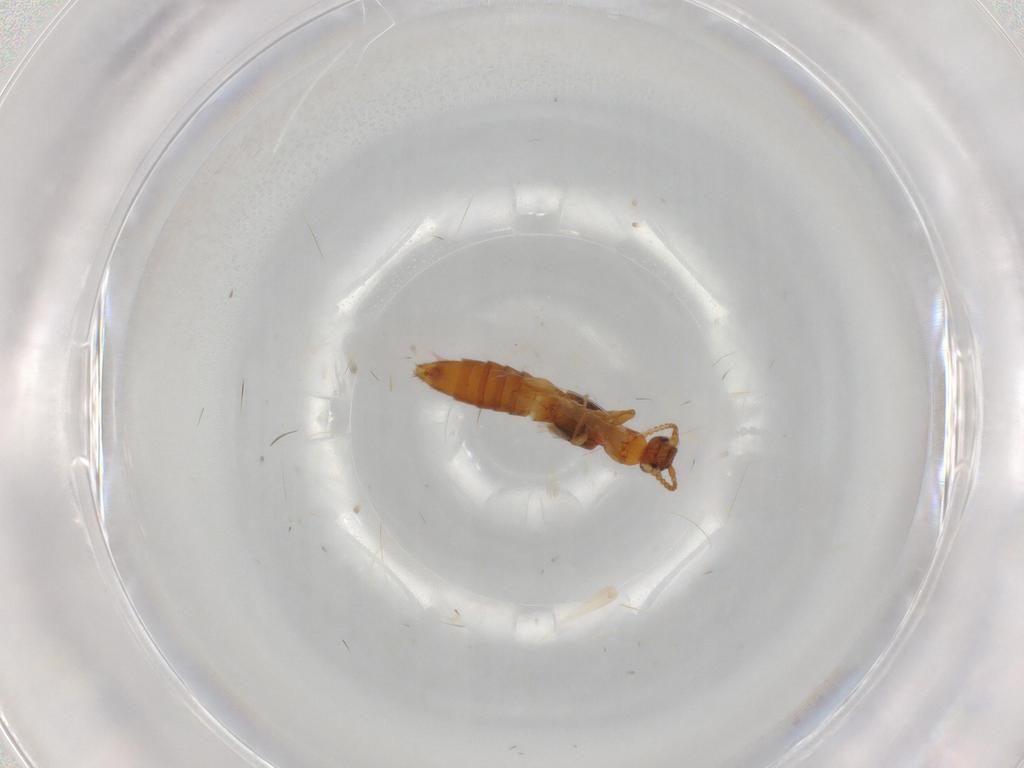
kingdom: Animalia
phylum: Arthropoda
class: Insecta
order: Coleoptera
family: Staphylinidae
